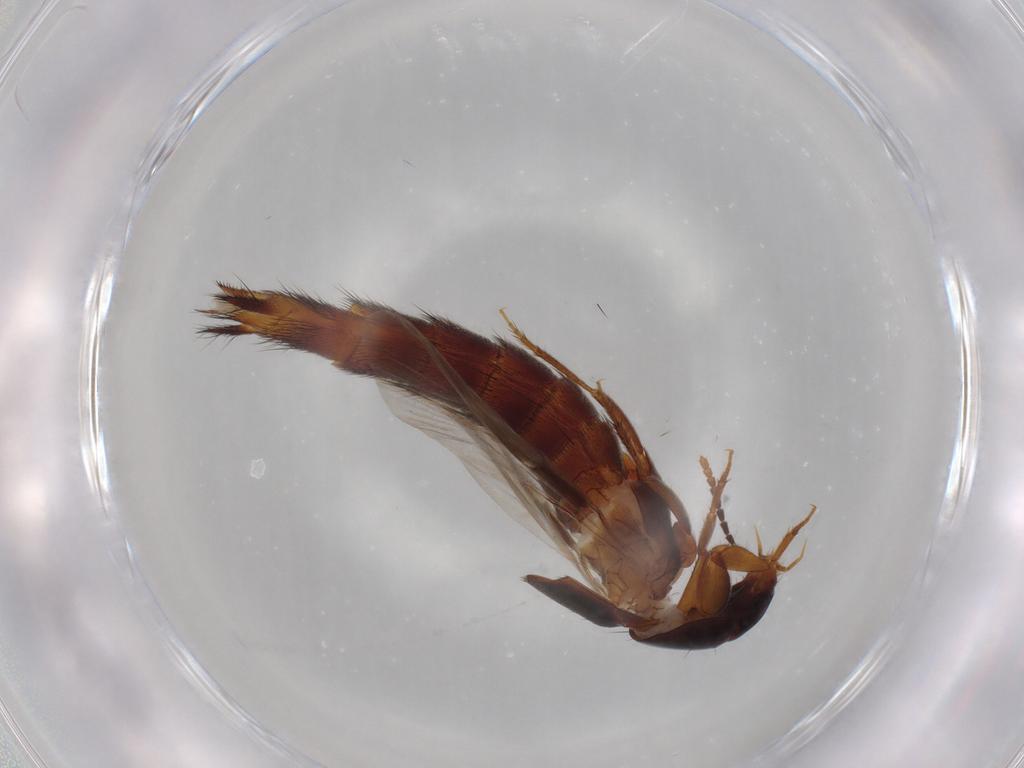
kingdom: Animalia
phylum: Arthropoda
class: Insecta
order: Coleoptera
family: Staphylinidae
